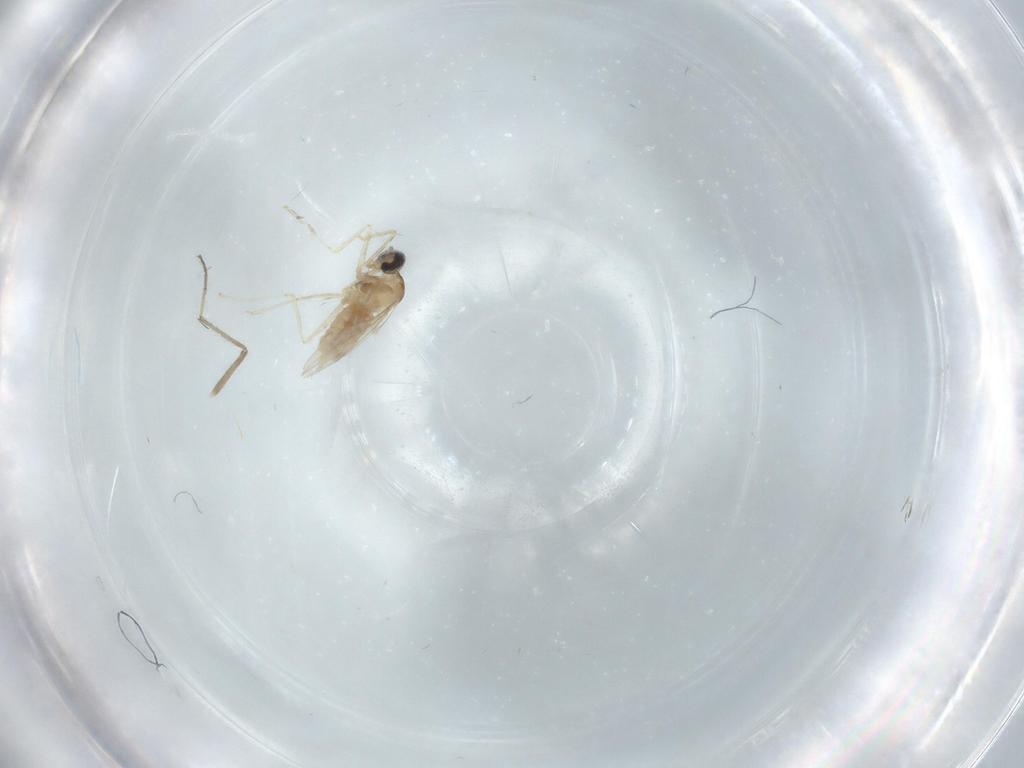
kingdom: Animalia
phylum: Arthropoda
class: Insecta
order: Diptera
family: Cecidomyiidae
